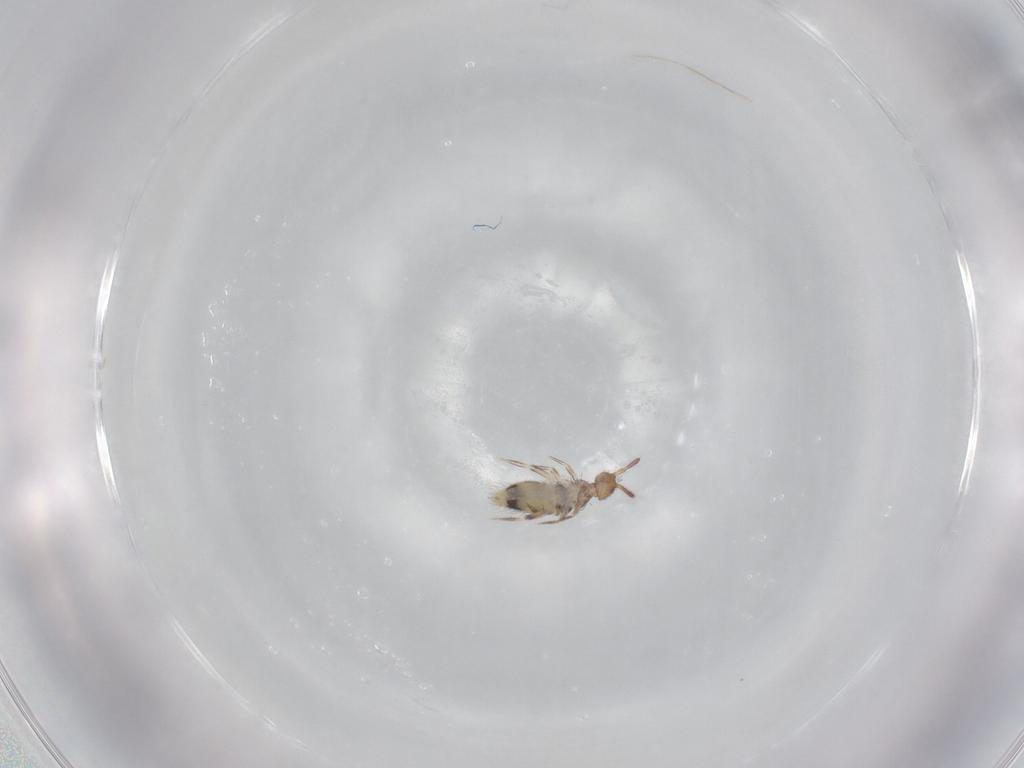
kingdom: Animalia
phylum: Arthropoda
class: Collembola
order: Entomobryomorpha
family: Entomobryidae
